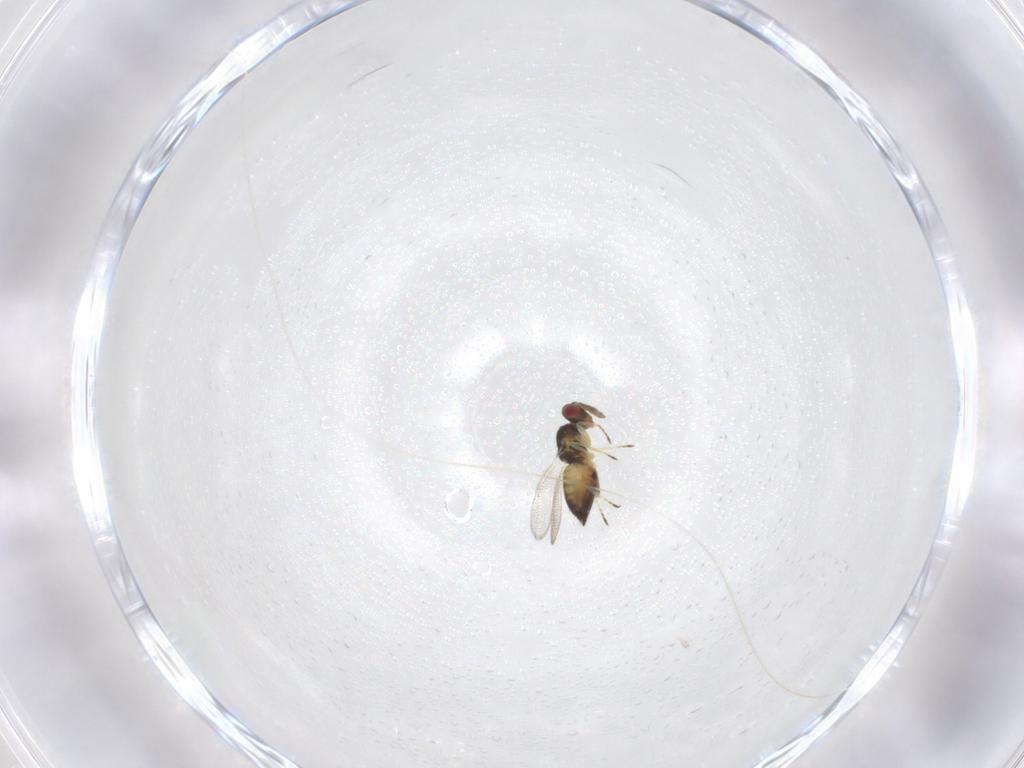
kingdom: Animalia
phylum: Arthropoda
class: Insecta
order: Hymenoptera
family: Eulophidae
